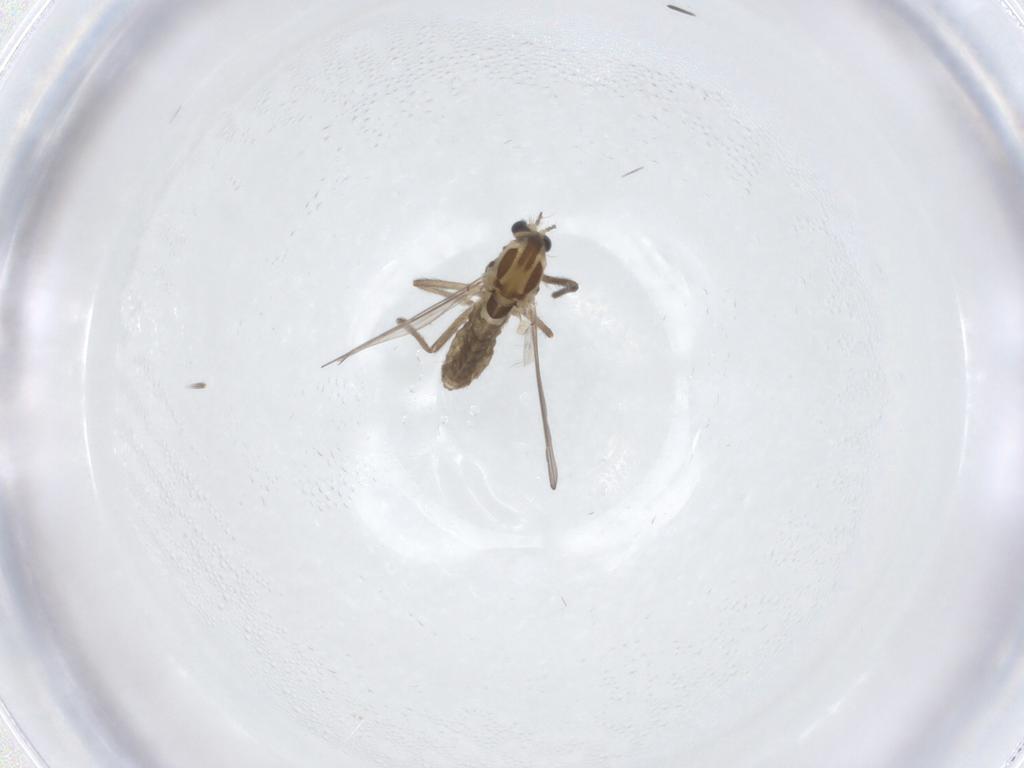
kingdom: Animalia
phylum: Arthropoda
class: Insecta
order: Diptera
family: Chironomidae
